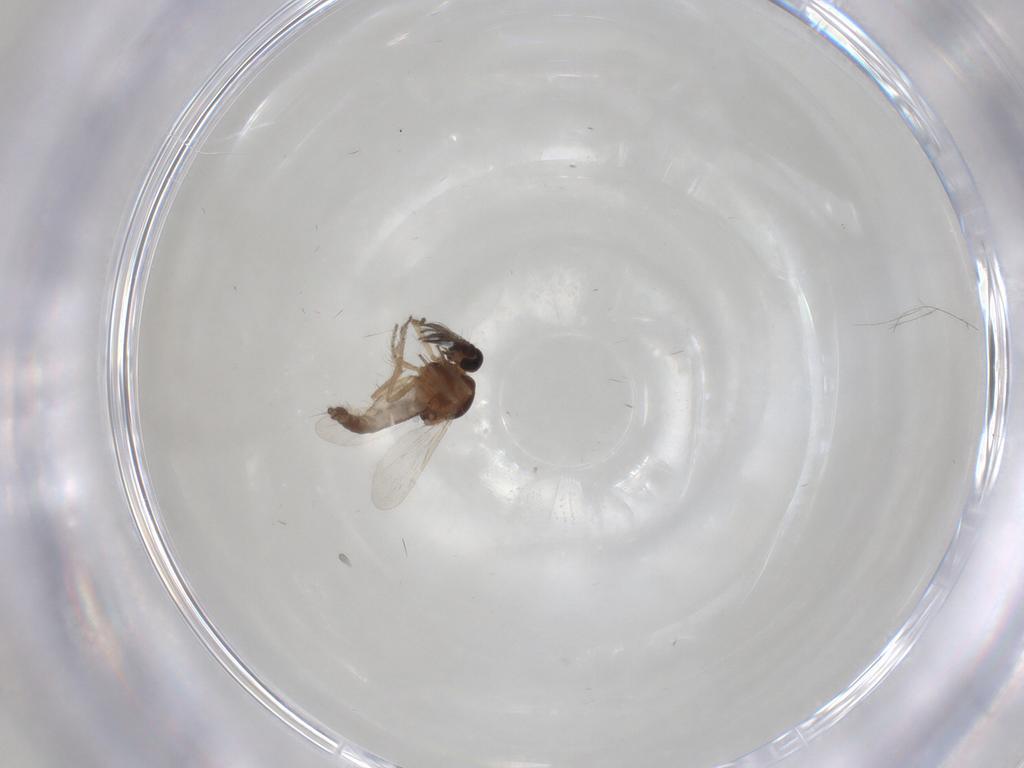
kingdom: Animalia
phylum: Arthropoda
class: Insecta
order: Diptera
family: Ceratopogonidae
